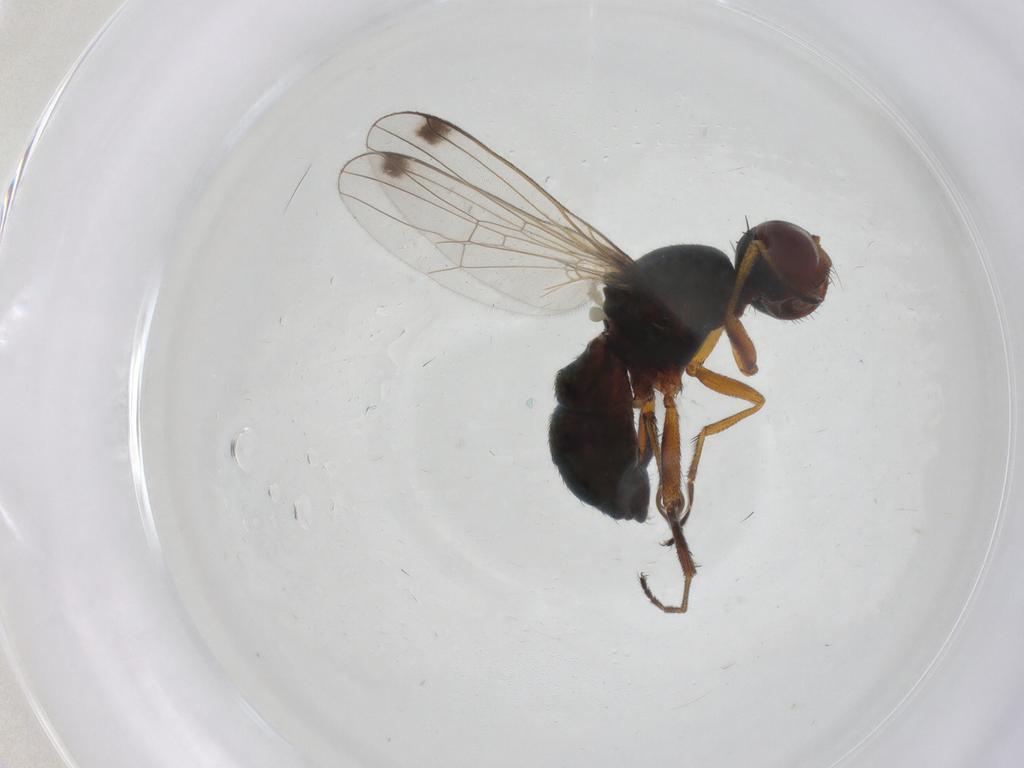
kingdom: Animalia
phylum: Arthropoda
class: Insecta
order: Diptera
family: Sepsidae
